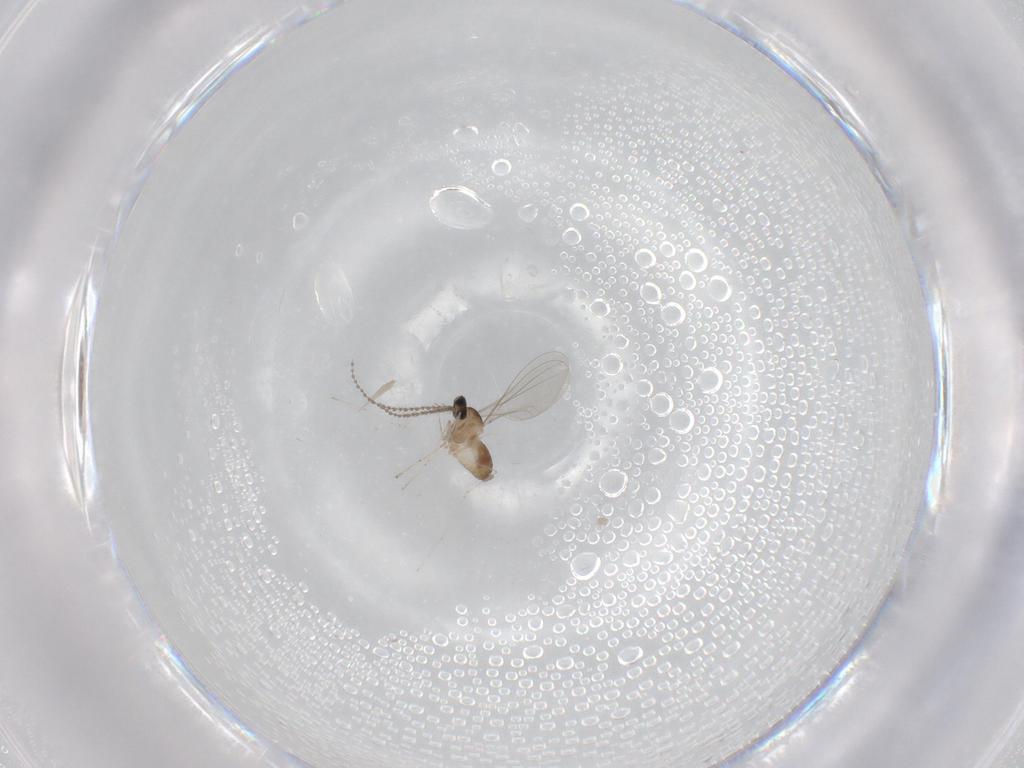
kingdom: Animalia
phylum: Arthropoda
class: Insecta
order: Diptera
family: Cecidomyiidae
